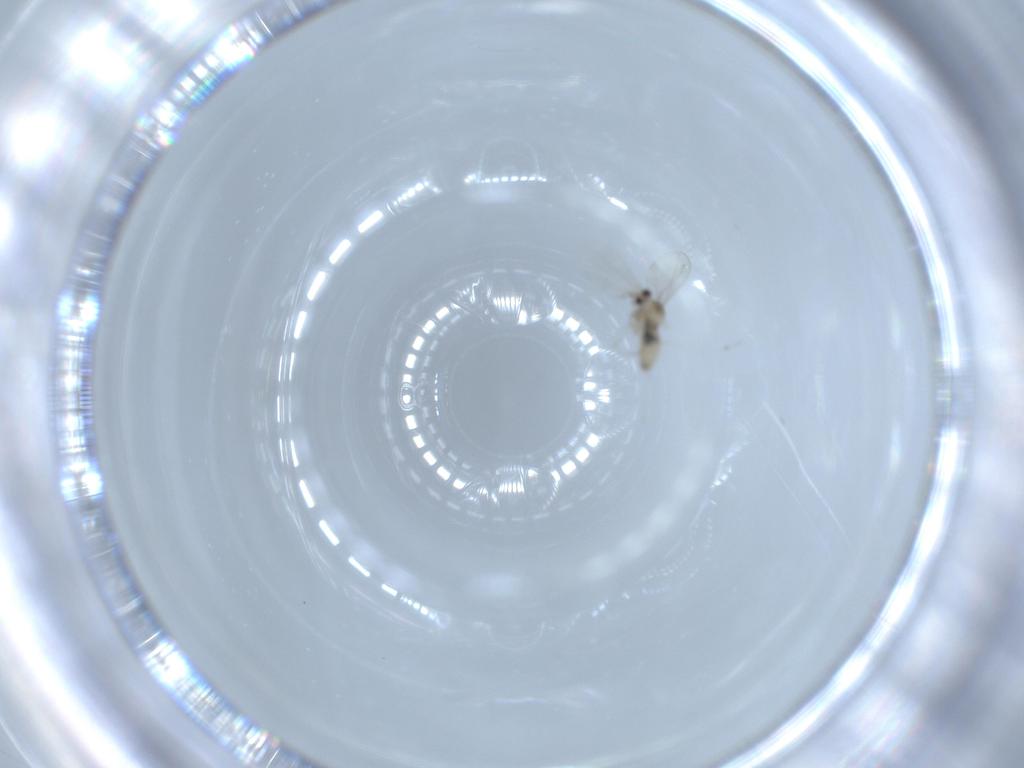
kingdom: Animalia
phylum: Arthropoda
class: Insecta
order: Diptera
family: Cecidomyiidae
